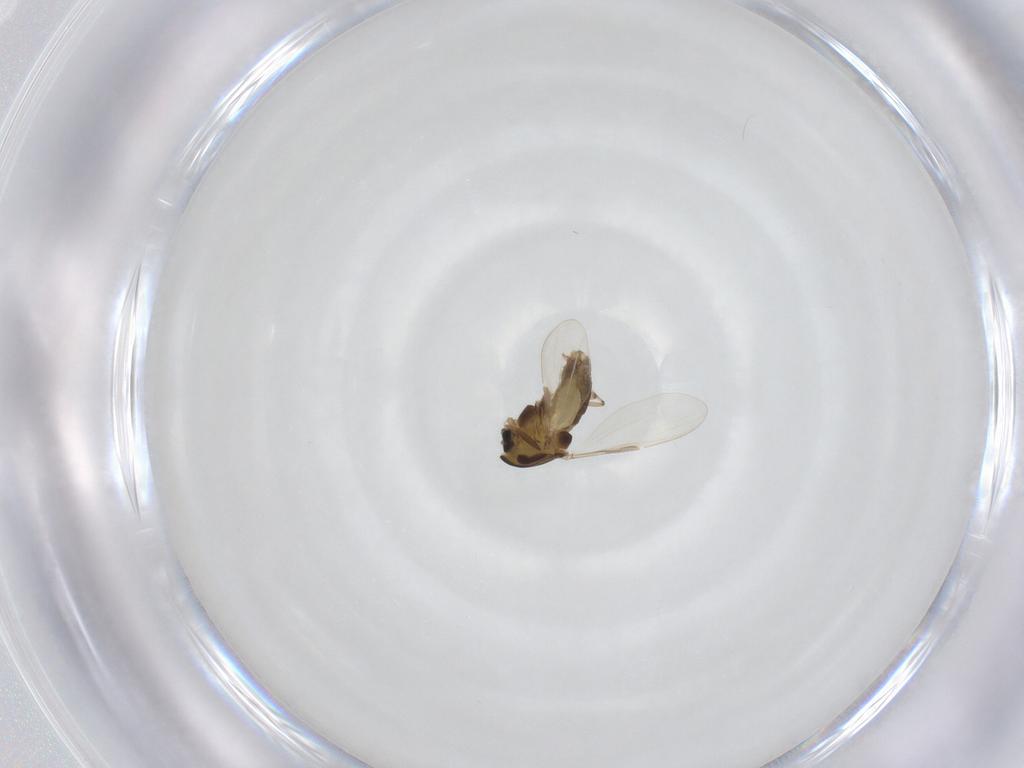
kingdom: Animalia
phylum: Arthropoda
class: Insecta
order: Diptera
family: Chironomidae
